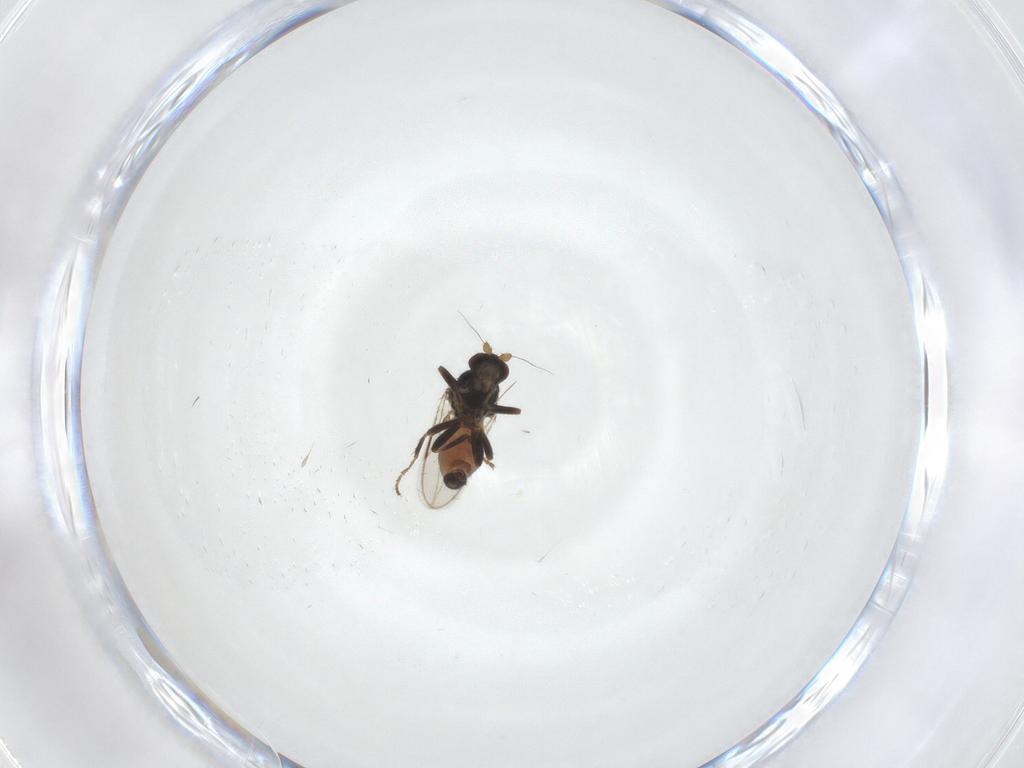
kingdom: Animalia
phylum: Arthropoda
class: Insecta
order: Diptera
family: Sphaeroceridae
